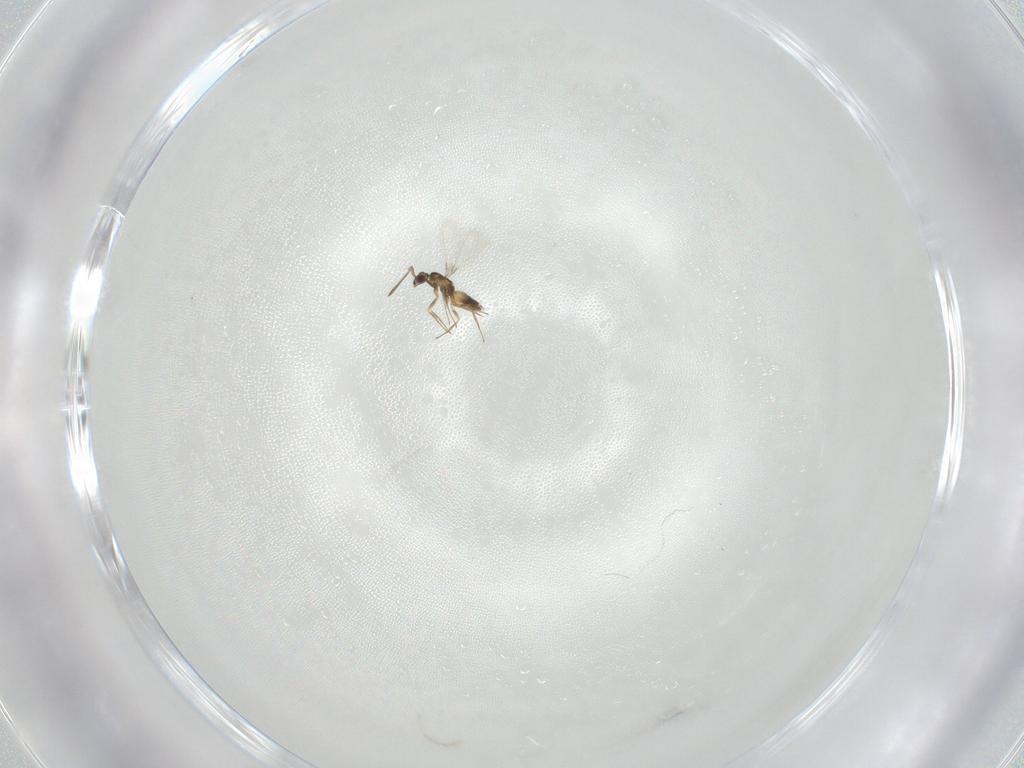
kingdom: Animalia
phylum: Arthropoda
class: Insecta
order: Hymenoptera
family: Mymaridae
